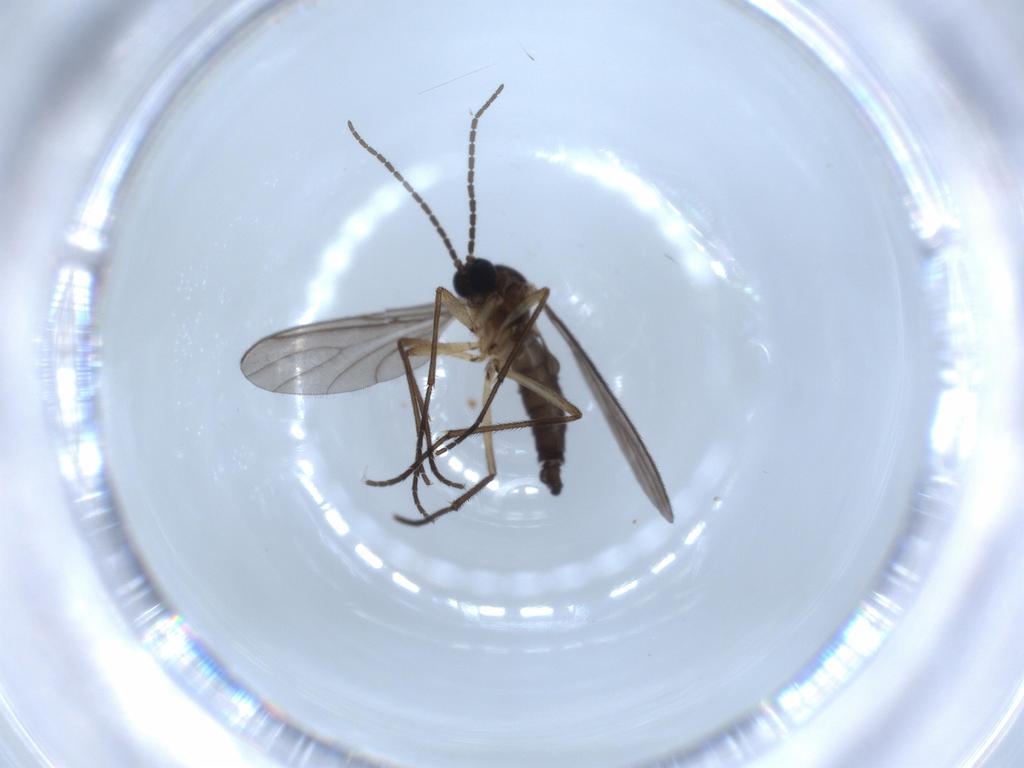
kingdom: Animalia
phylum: Arthropoda
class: Insecta
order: Diptera
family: Sciaridae
